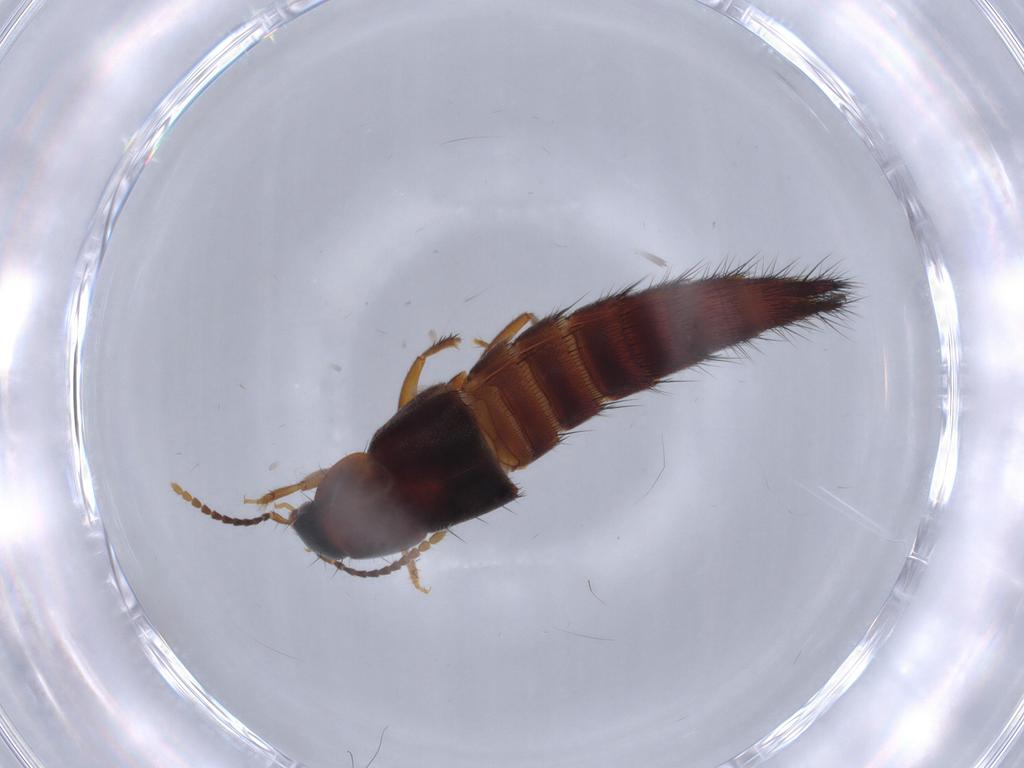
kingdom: Animalia
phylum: Arthropoda
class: Insecta
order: Coleoptera
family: Staphylinidae
